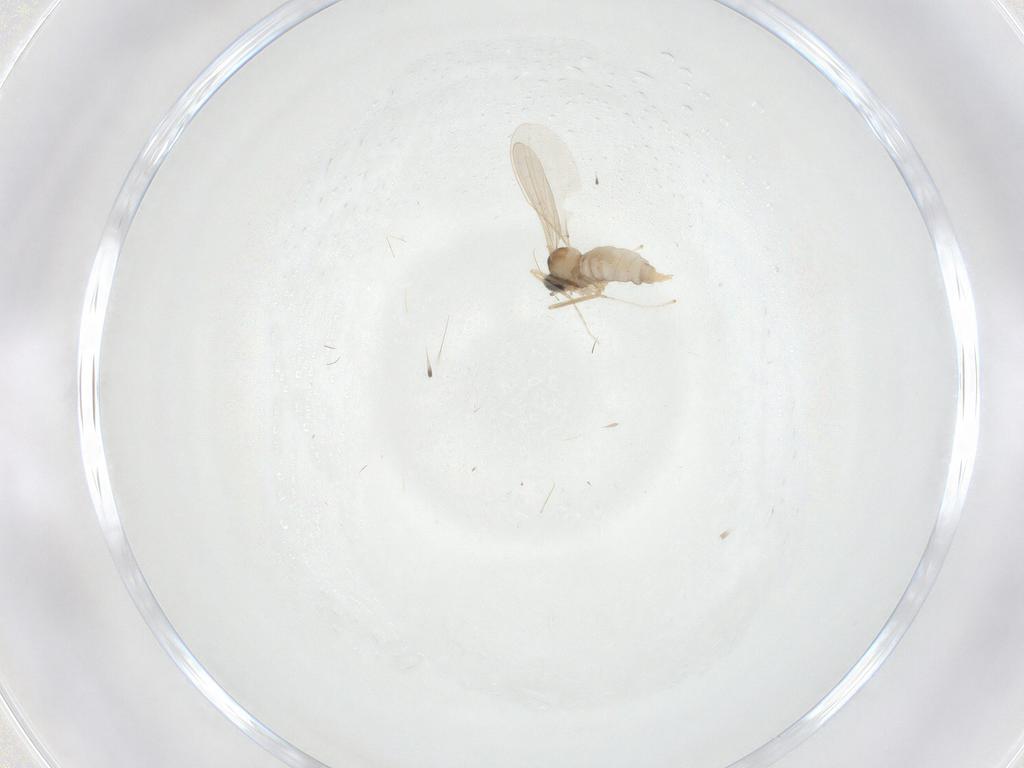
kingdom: Animalia
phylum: Arthropoda
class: Insecta
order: Diptera
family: Cecidomyiidae
